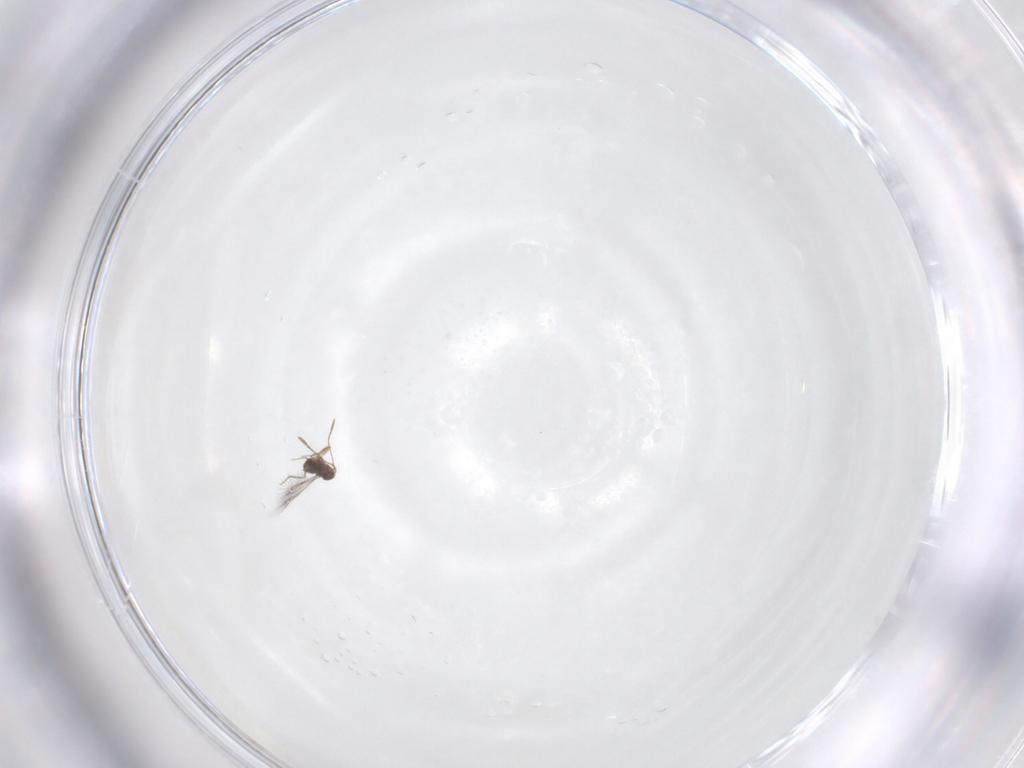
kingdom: Animalia
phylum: Arthropoda
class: Insecta
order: Hymenoptera
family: Mymaridae
